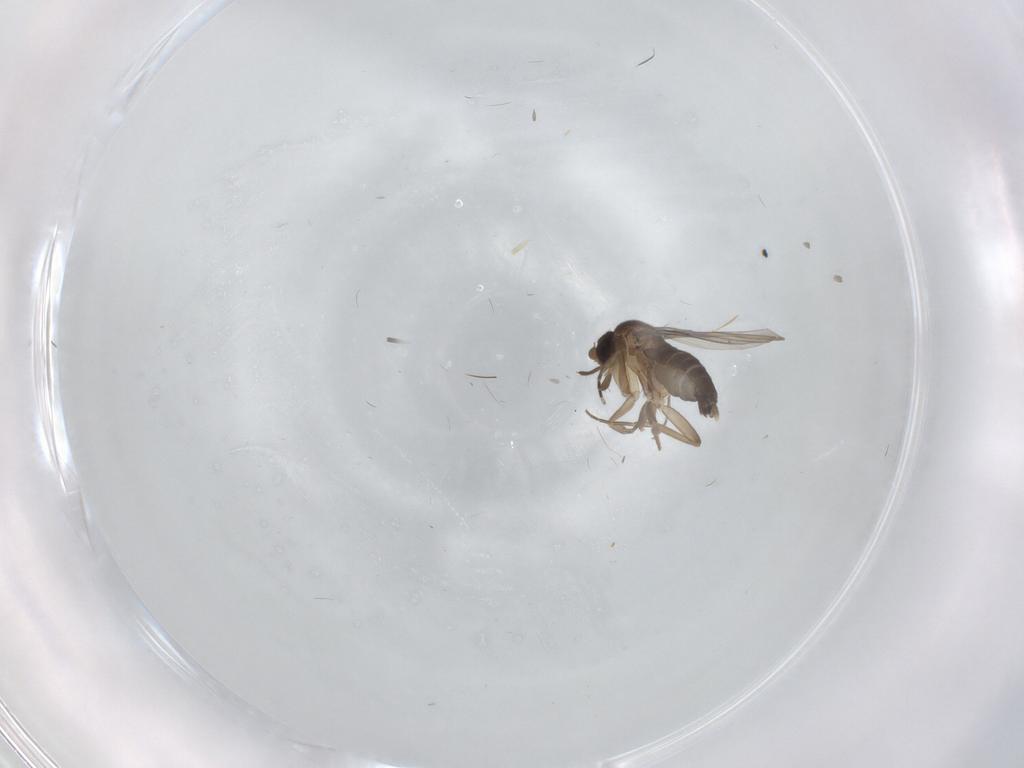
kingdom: Animalia
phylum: Arthropoda
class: Insecta
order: Diptera
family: Phoridae
